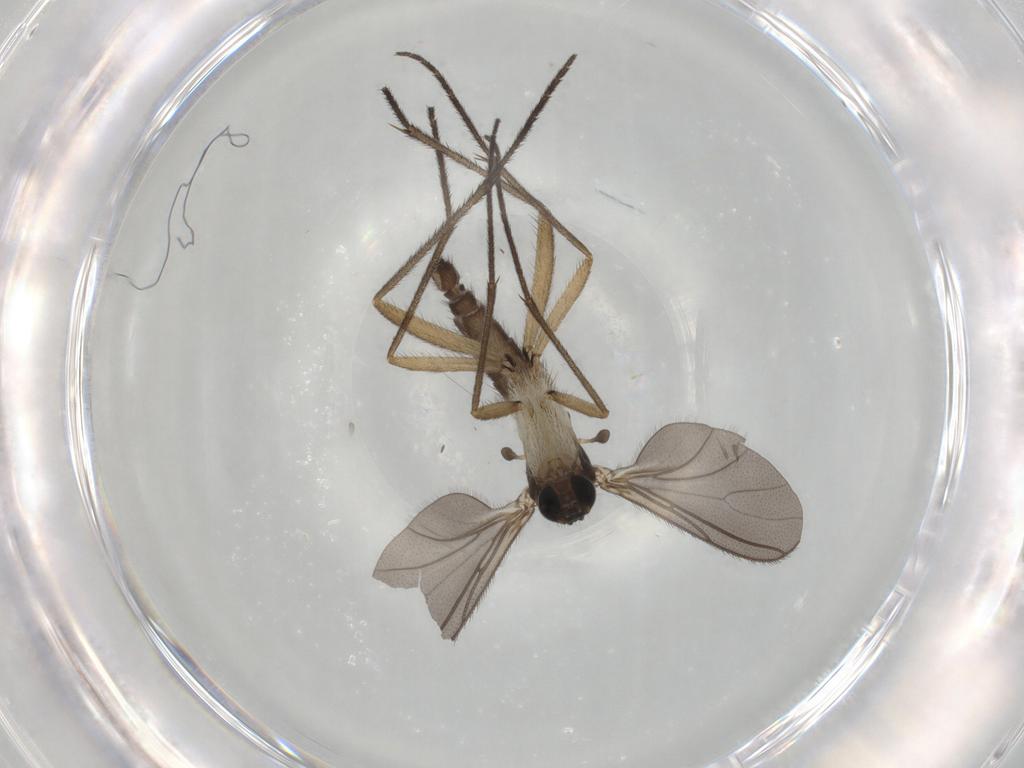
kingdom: Animalia
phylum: Arthropoda
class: Insecta
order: Diptera
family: Sciaridae
